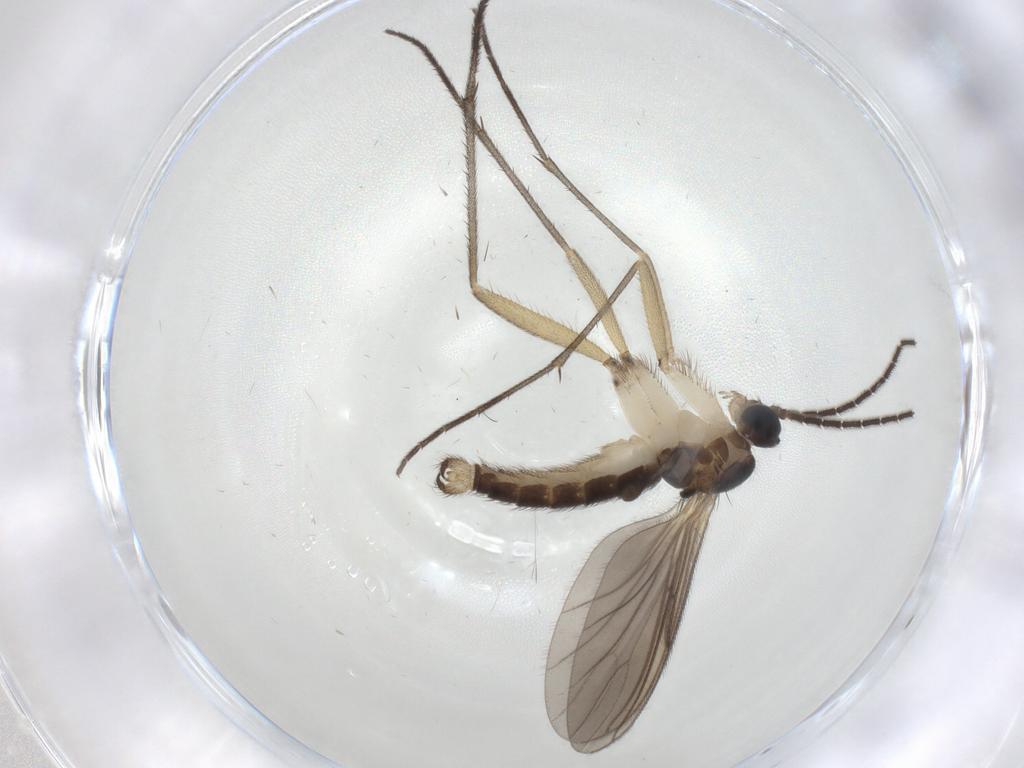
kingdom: Animalia
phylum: Arthropoda
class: Insecta
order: Diptera
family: Sciaridae
